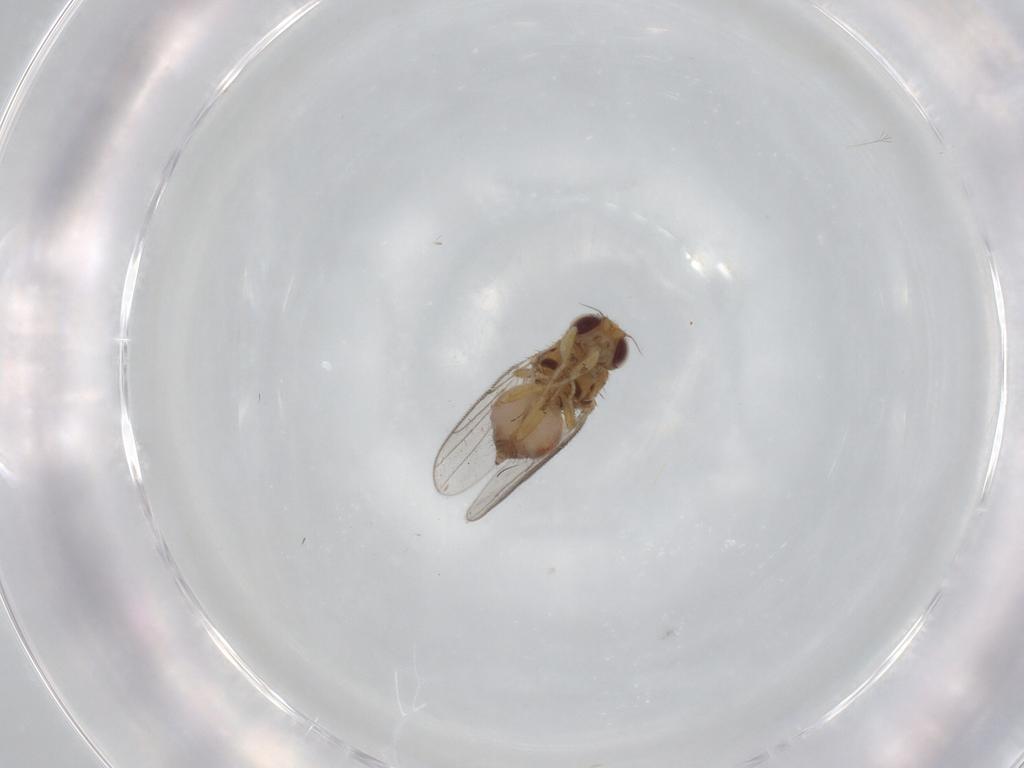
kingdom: Animalia
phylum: Arthropoda
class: Insecta
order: Diptera
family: Chloropidae
